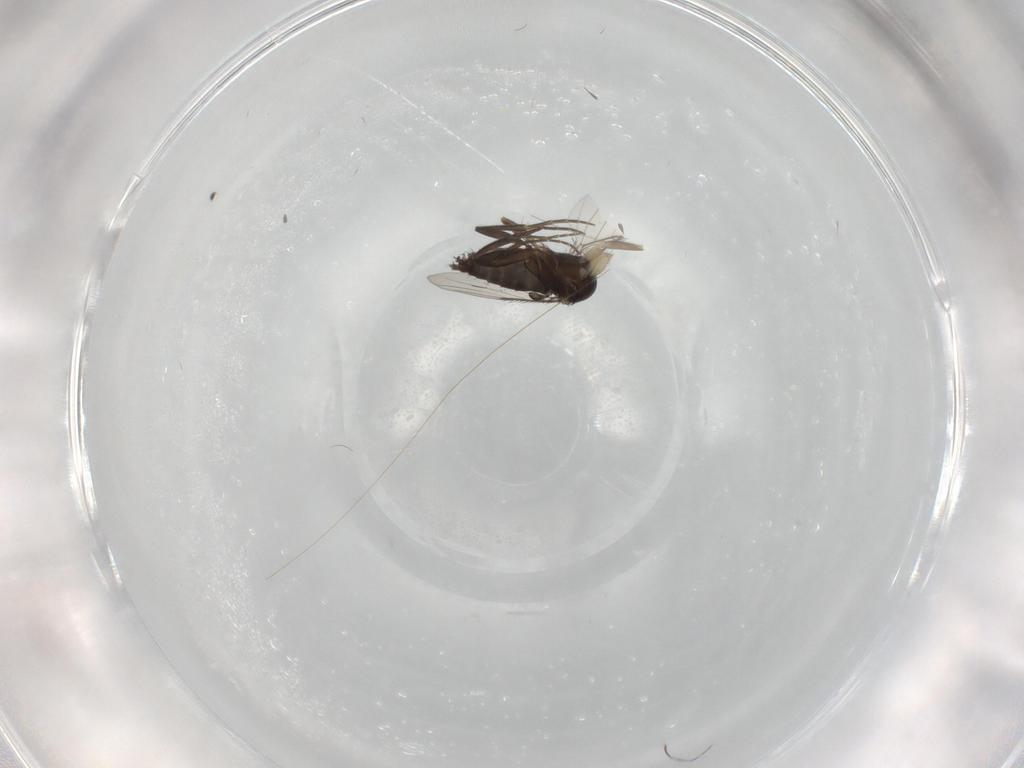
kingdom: Animalia
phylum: Arthropoda
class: Insecta
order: Diptera
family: Phoridae
